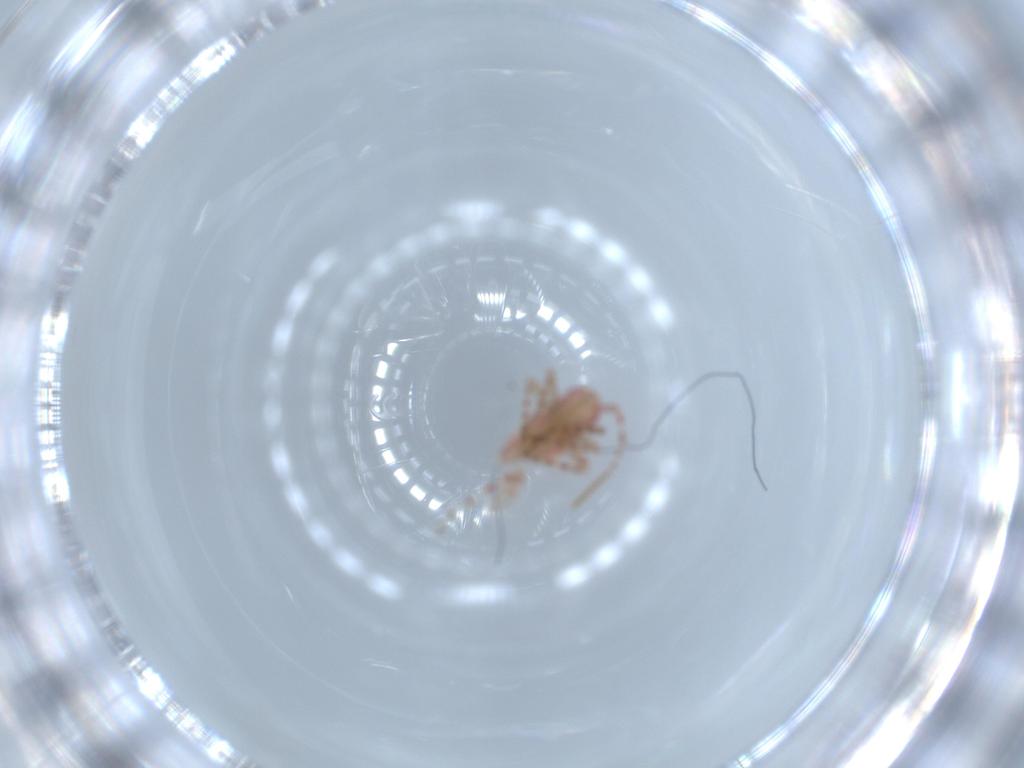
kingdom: Animalia
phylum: Arthropoda
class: Insecta
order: Hemiptera
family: Miridae
